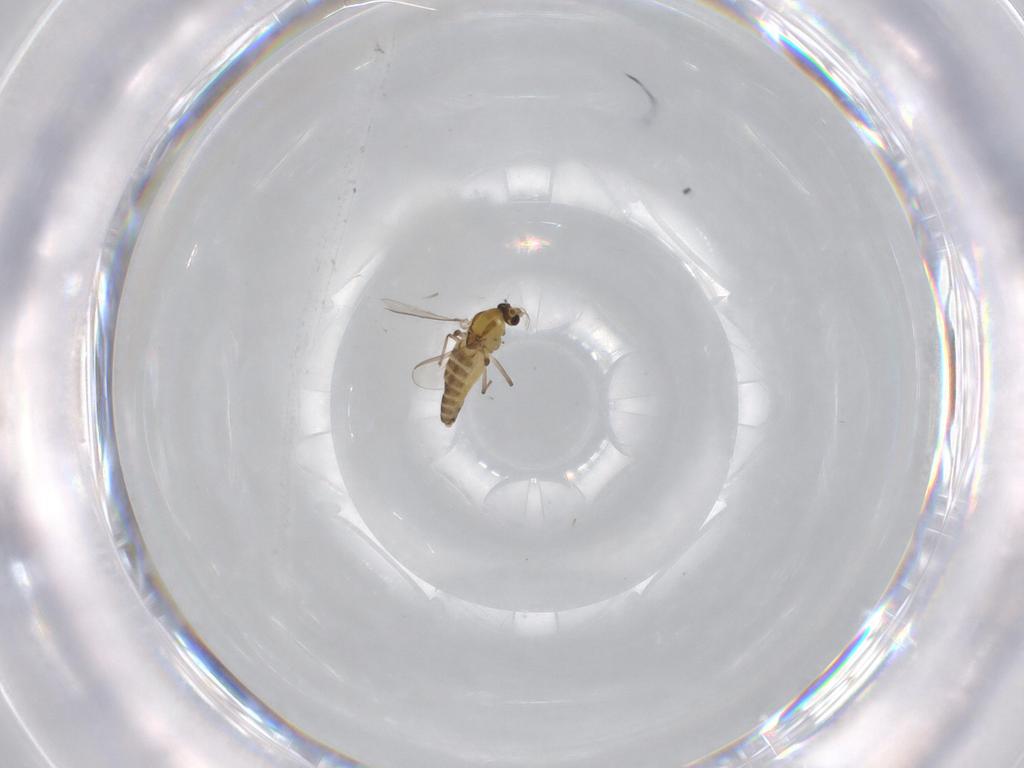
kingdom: Animalia
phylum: Arthropoda
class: Insecta
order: Diptera
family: Chironomidae
